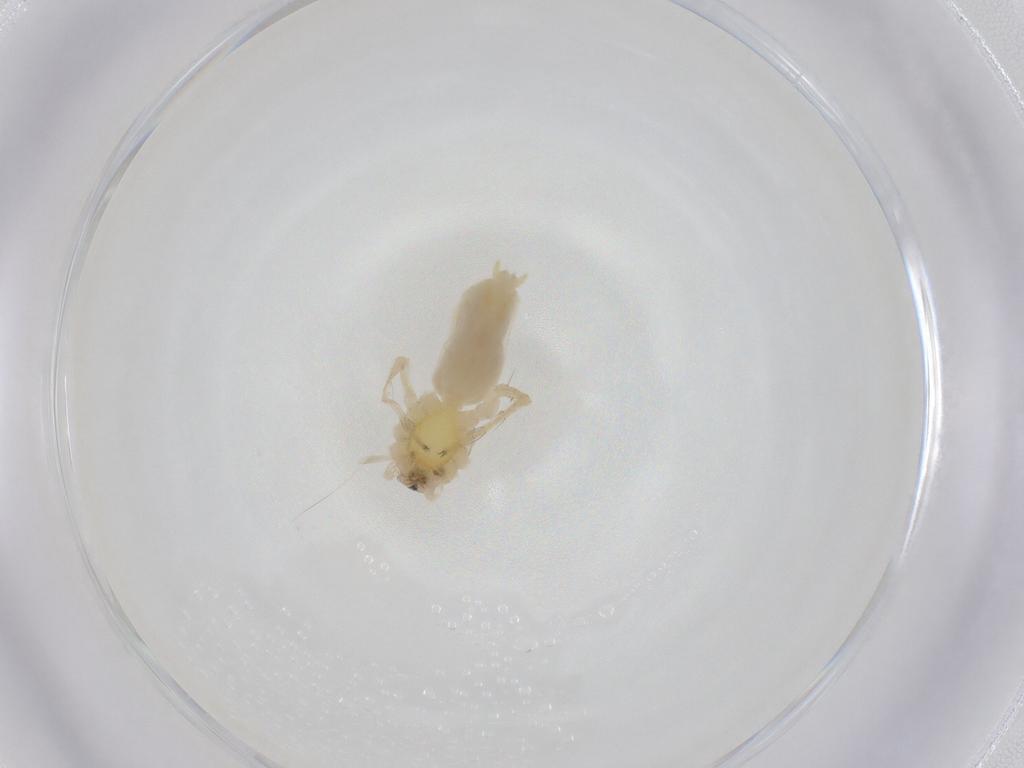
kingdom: Animalia
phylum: Arthropoda
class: Arachnida
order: Araneae
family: Anyphaenidae
